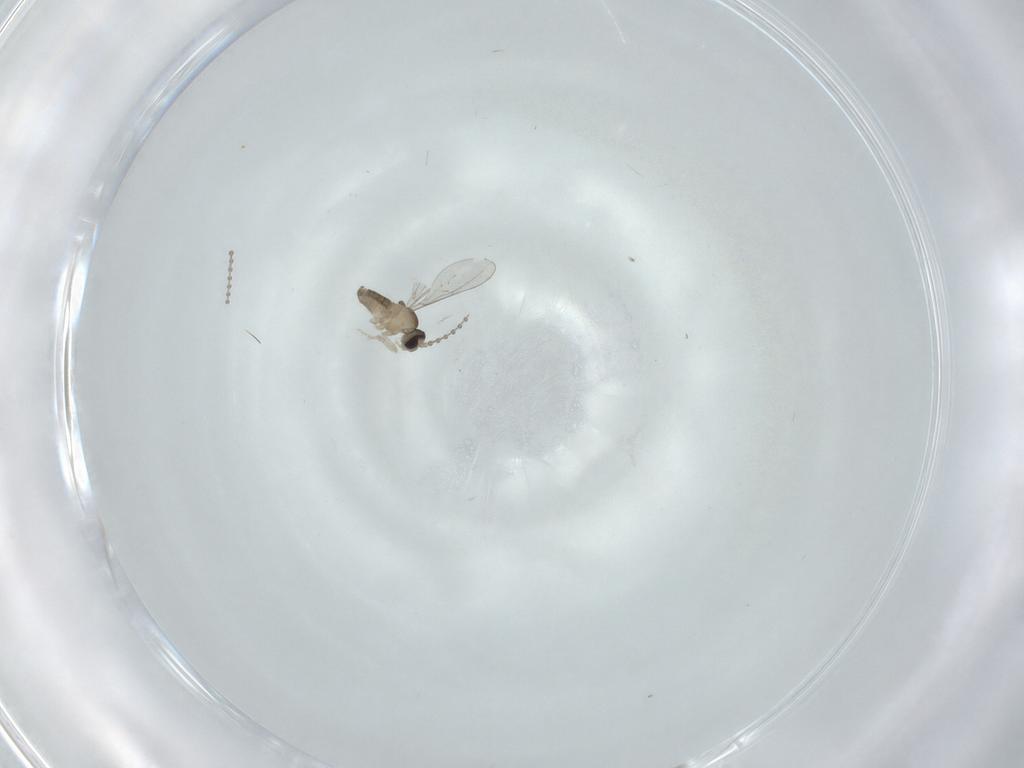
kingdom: Animalia
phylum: Arthropoda
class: Insecta
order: Diptera
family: Cecidomyiidae
